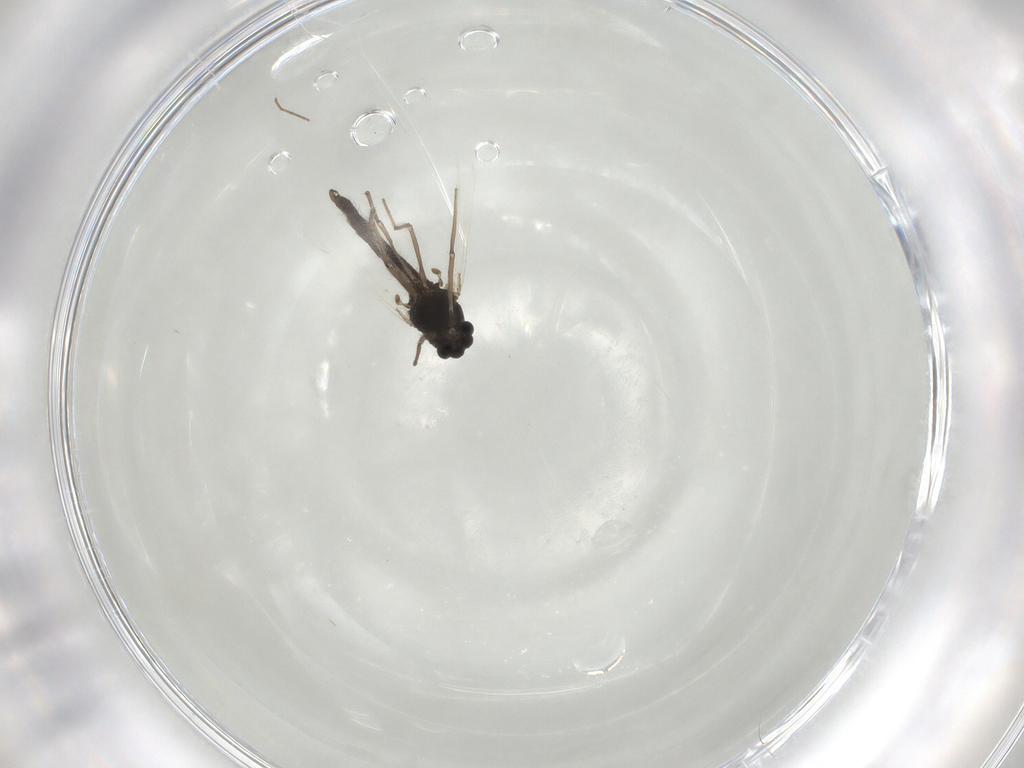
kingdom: Animalia
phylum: Arthropoda
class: Insecta
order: Diptera
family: Chironomidae
